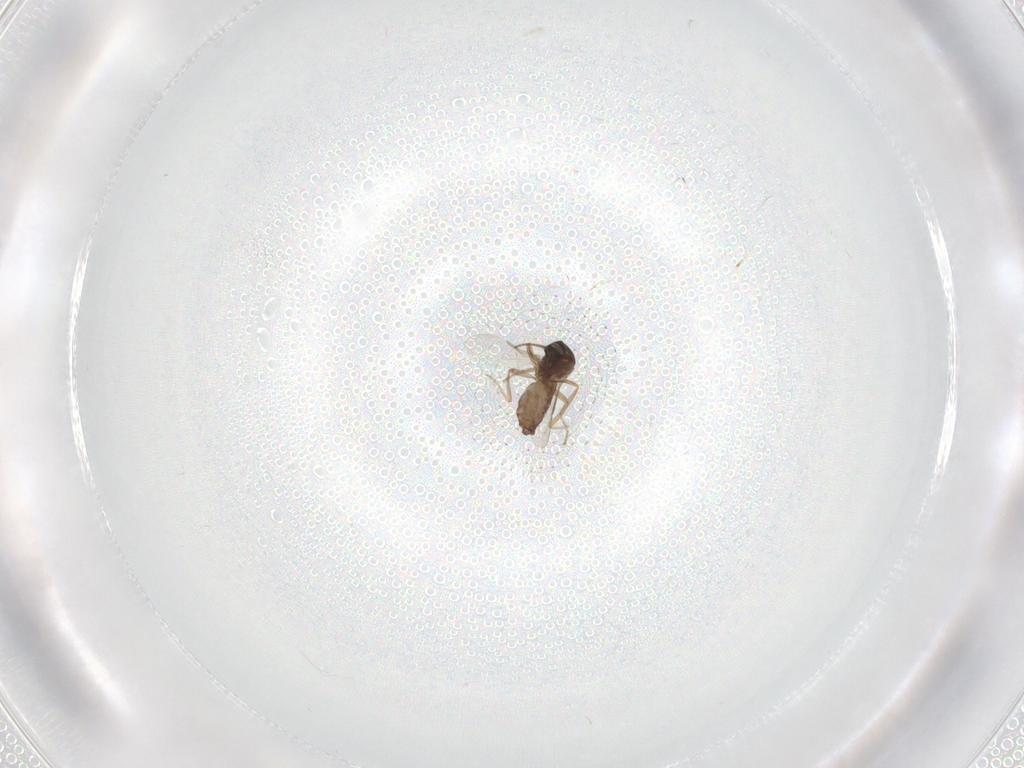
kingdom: Animalia
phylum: Arthropoda
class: Insecta
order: Diptera
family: Ceratopogonidae
